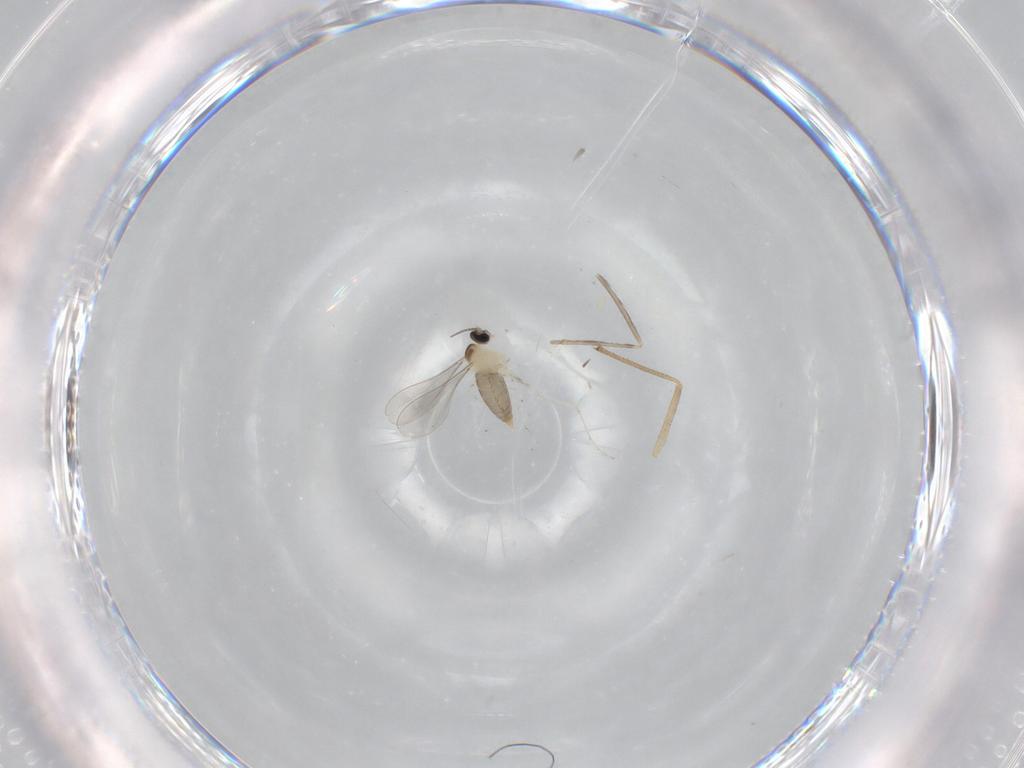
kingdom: Animalia
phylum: Arthropoda
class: Insecta
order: Diptera
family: Cecidomyiidae
